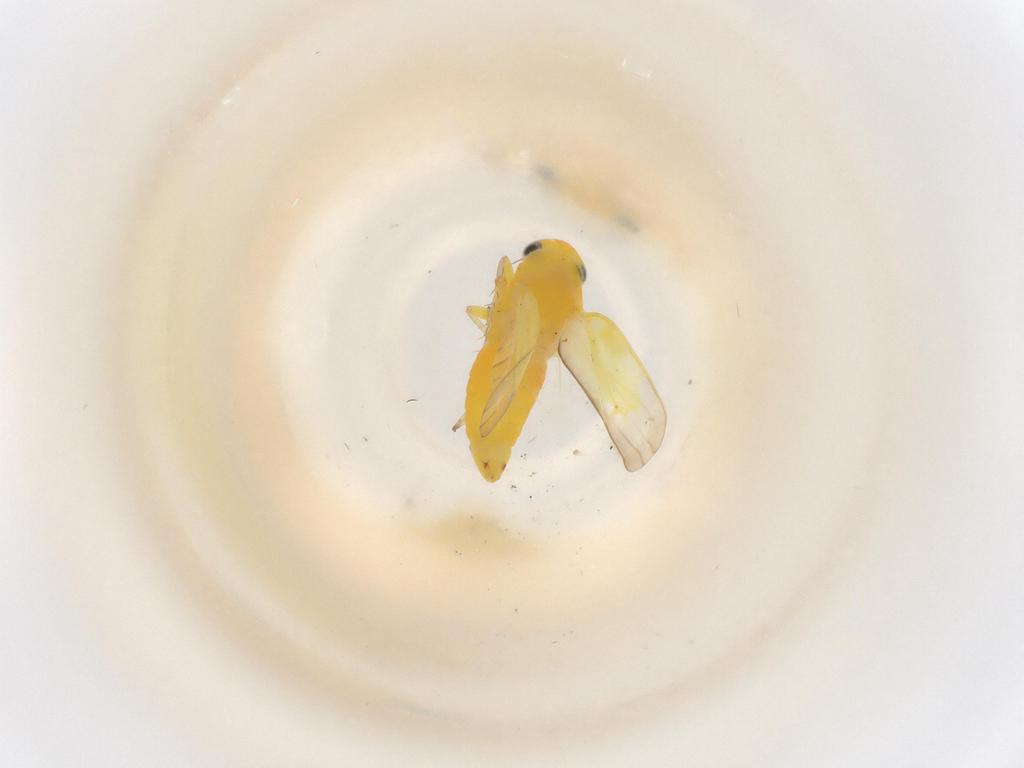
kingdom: Animalia
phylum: Arthropoda
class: Insecta
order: Hemiptera
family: Cicadellidae
